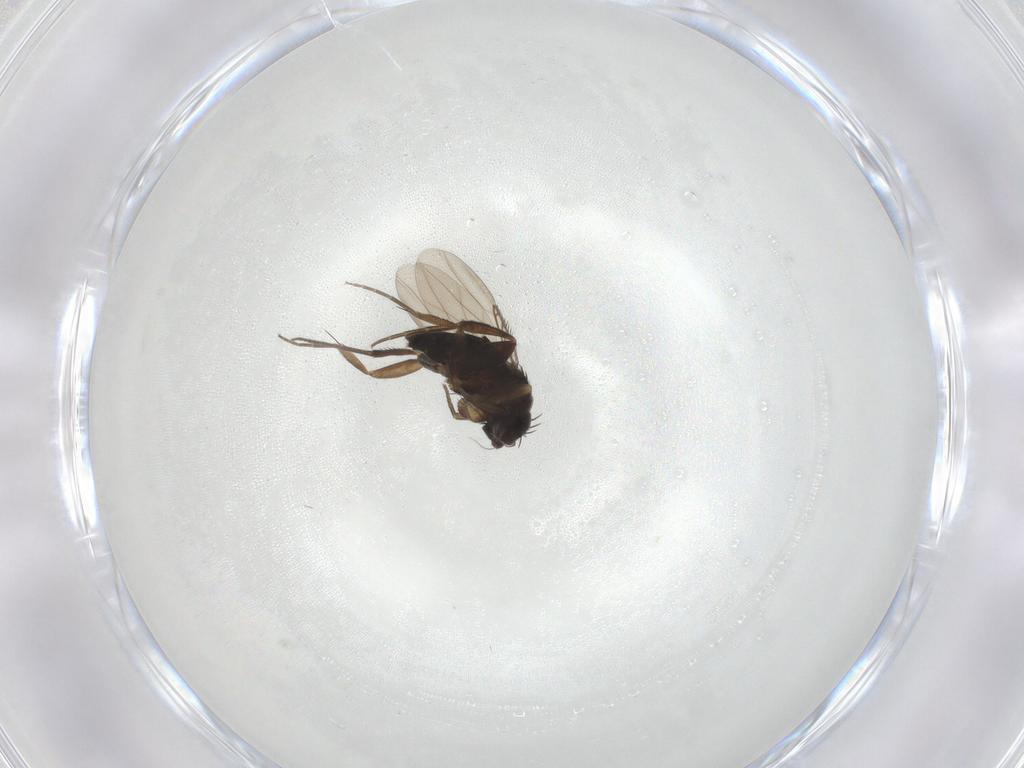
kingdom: Animalia
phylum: Arthropoda
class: Insecta
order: Diptera
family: Phoridae
